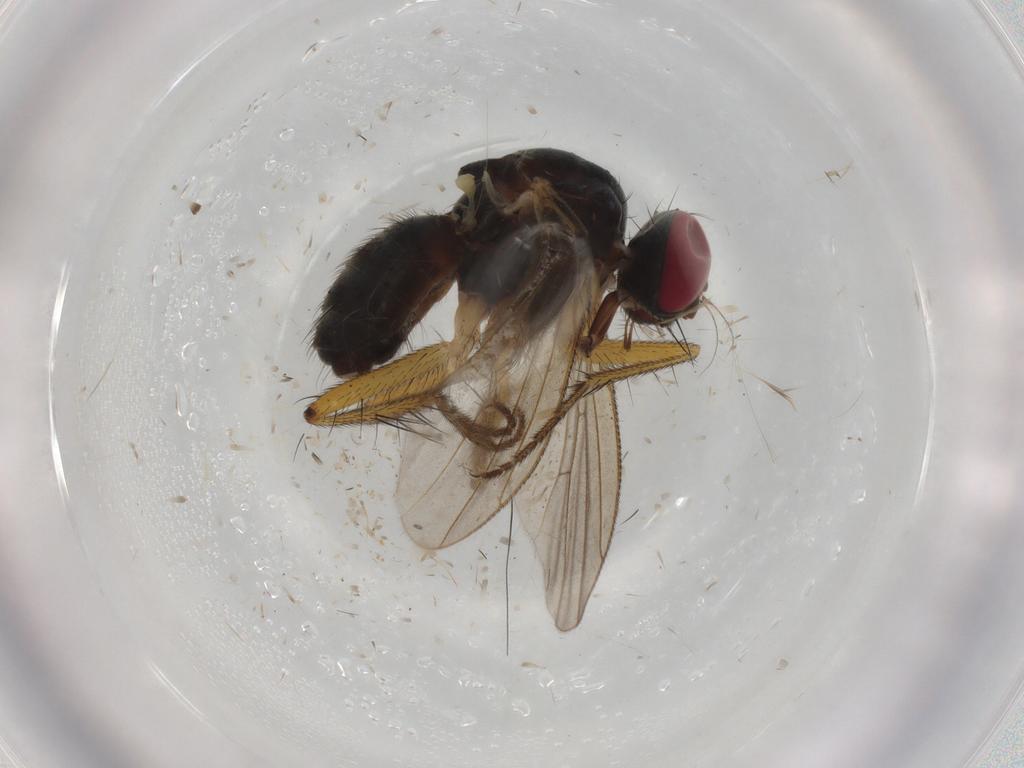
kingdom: Animalia
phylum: Arthropoda
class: Insecta
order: Diptera
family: Muscidae
